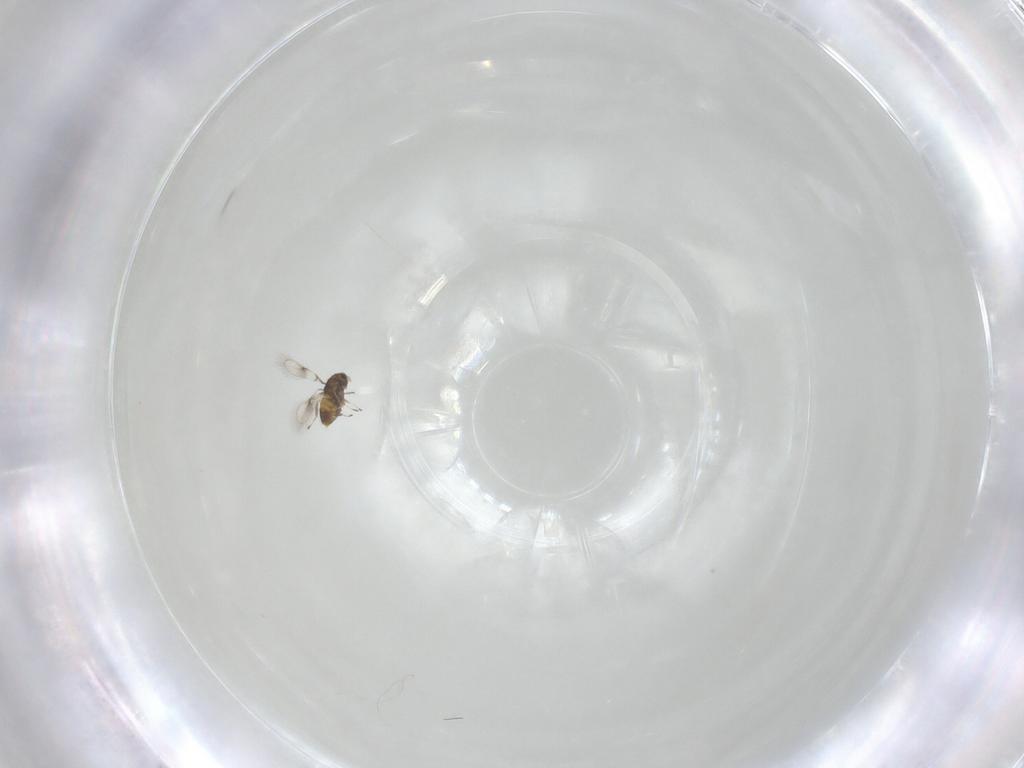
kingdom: Animalia
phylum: Arthropoda
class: Insecta
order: Hymenoptera
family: Trichogrammatidae
